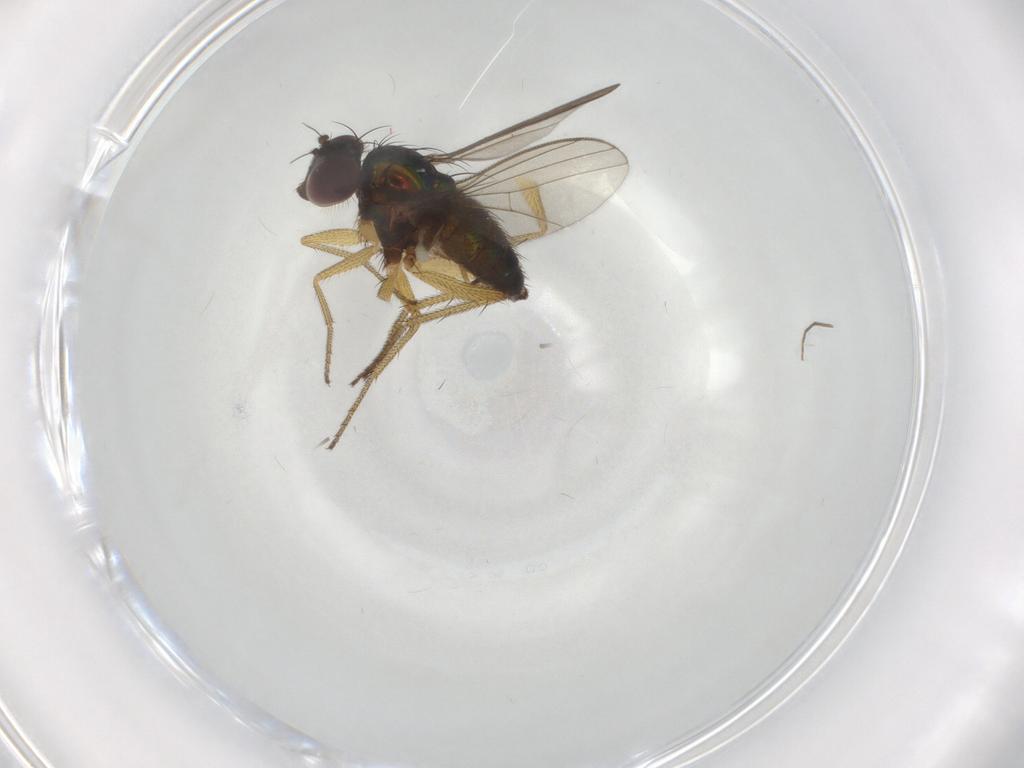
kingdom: Animalia
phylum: Arthropoda
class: Insecta
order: Diptera
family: Dolichopodidae
